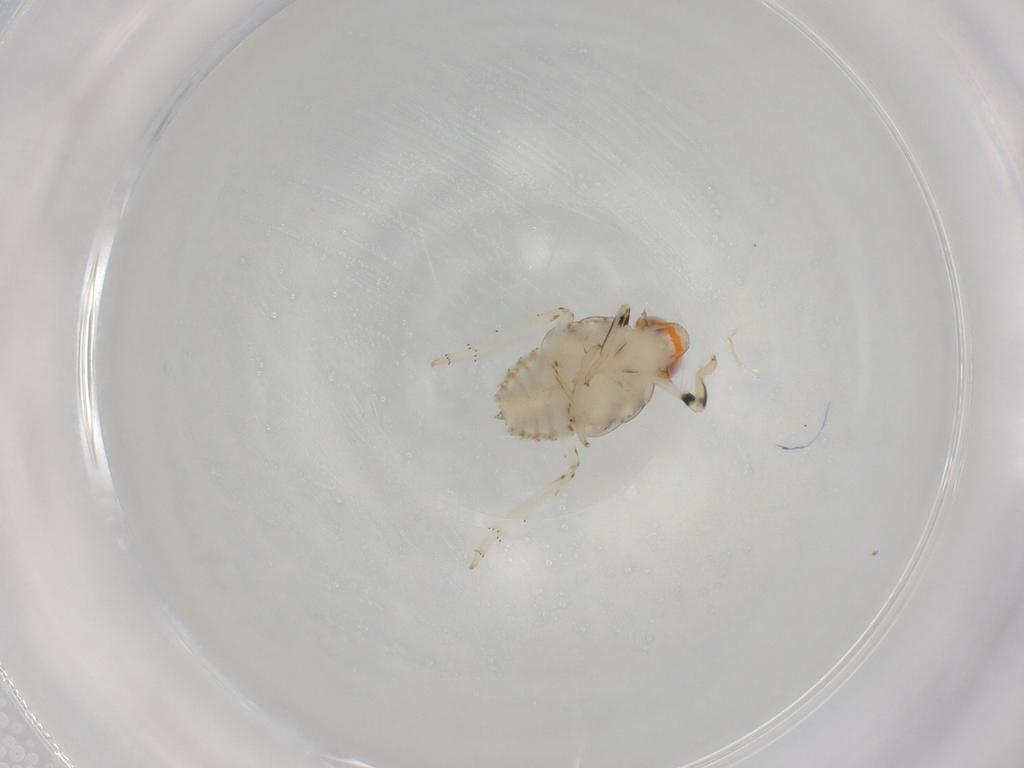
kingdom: Animalia
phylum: Arthropoda
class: Insecta
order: Hemiptera
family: Issidae
